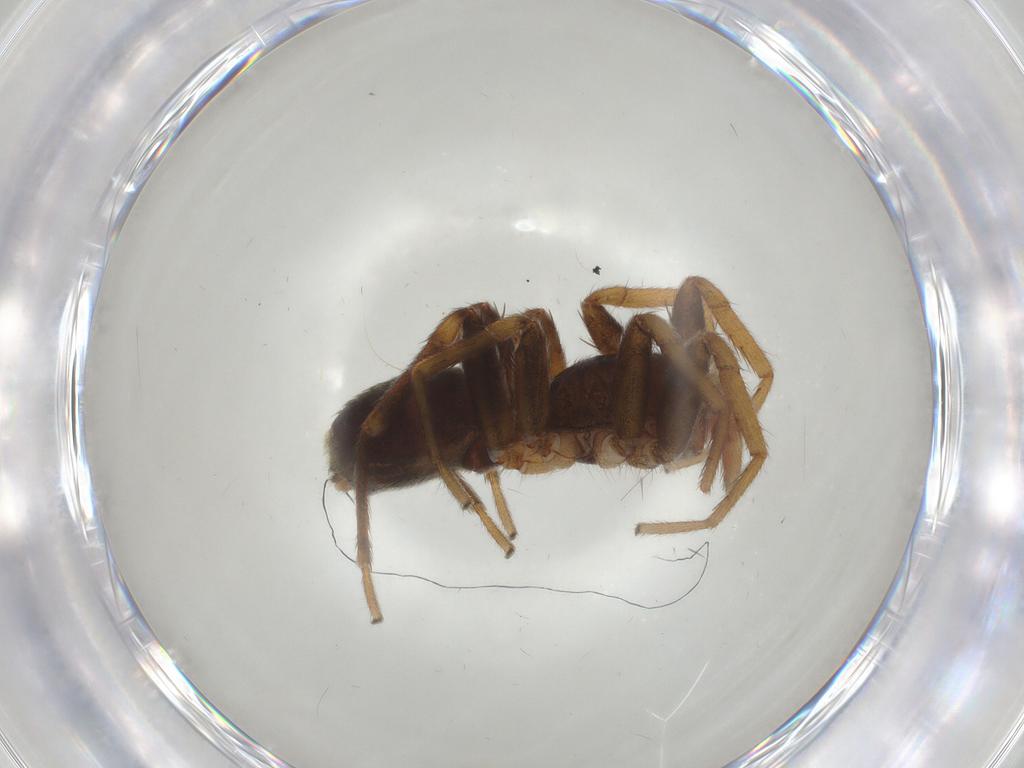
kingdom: Animalia
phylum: Arthropoda
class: Arachnida
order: Araneae
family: Corinnidae
